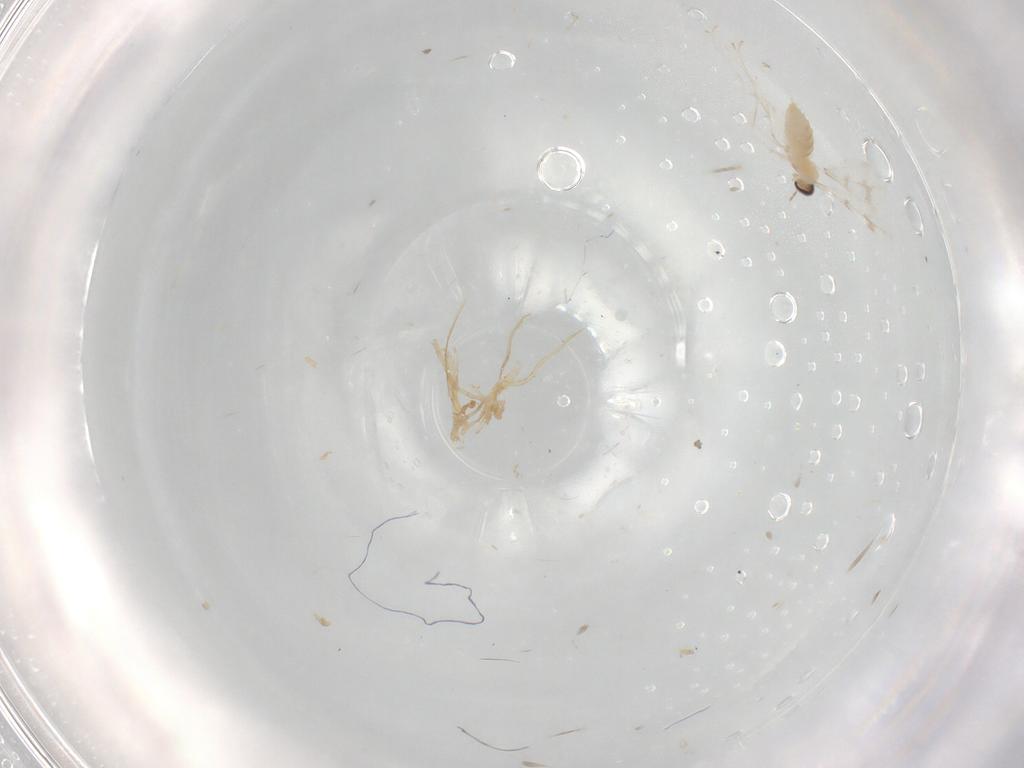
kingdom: Animalia
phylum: Arthropoda
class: Insecta
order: Diptera
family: Cecidomyiidae
